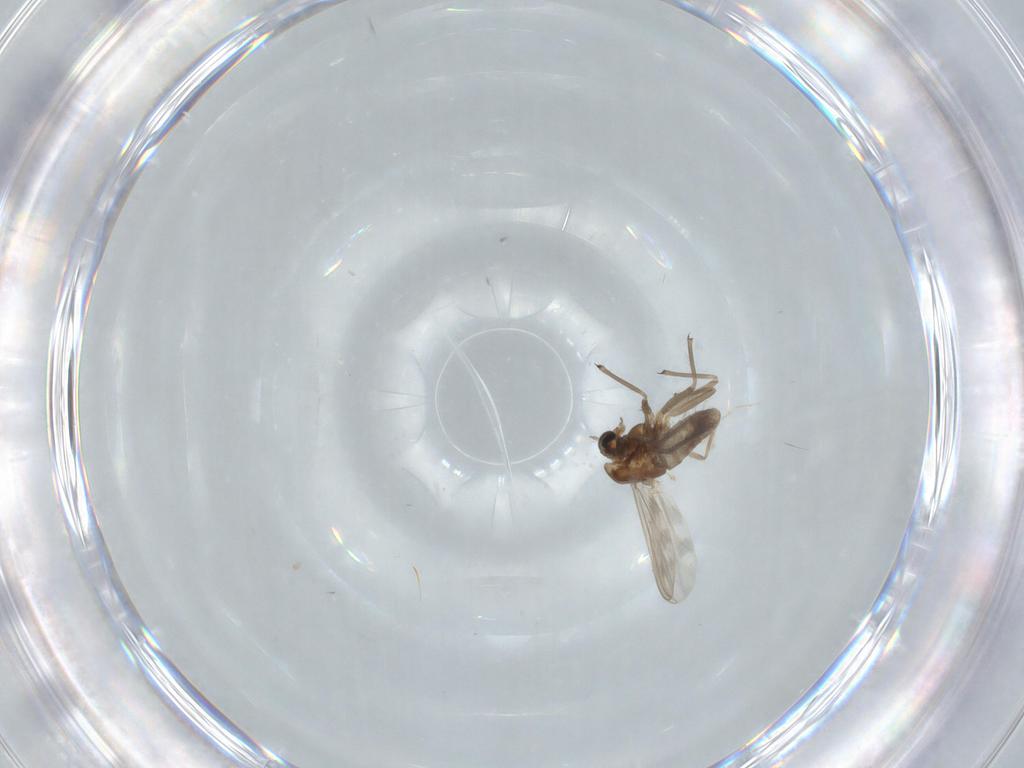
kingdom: Animalia
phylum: Arthropoda
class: Insecta
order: Diptera
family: Chironomidae
